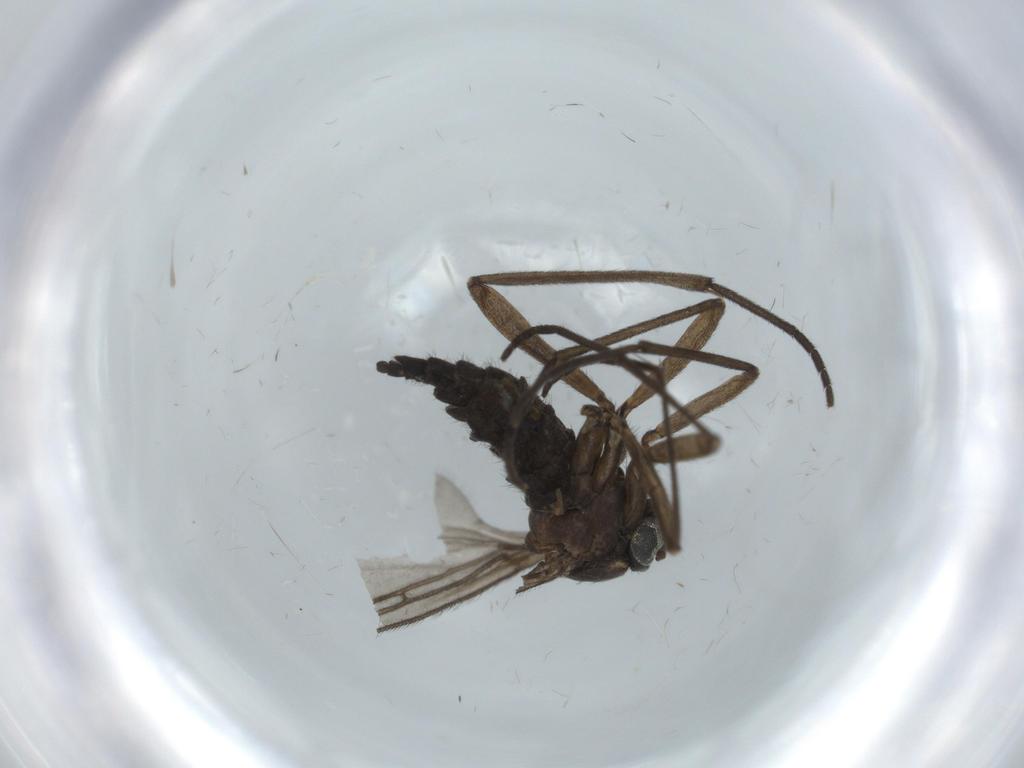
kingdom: Animalia
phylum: Arthropoda
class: Insecta
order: Diptera
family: Sciaridae
